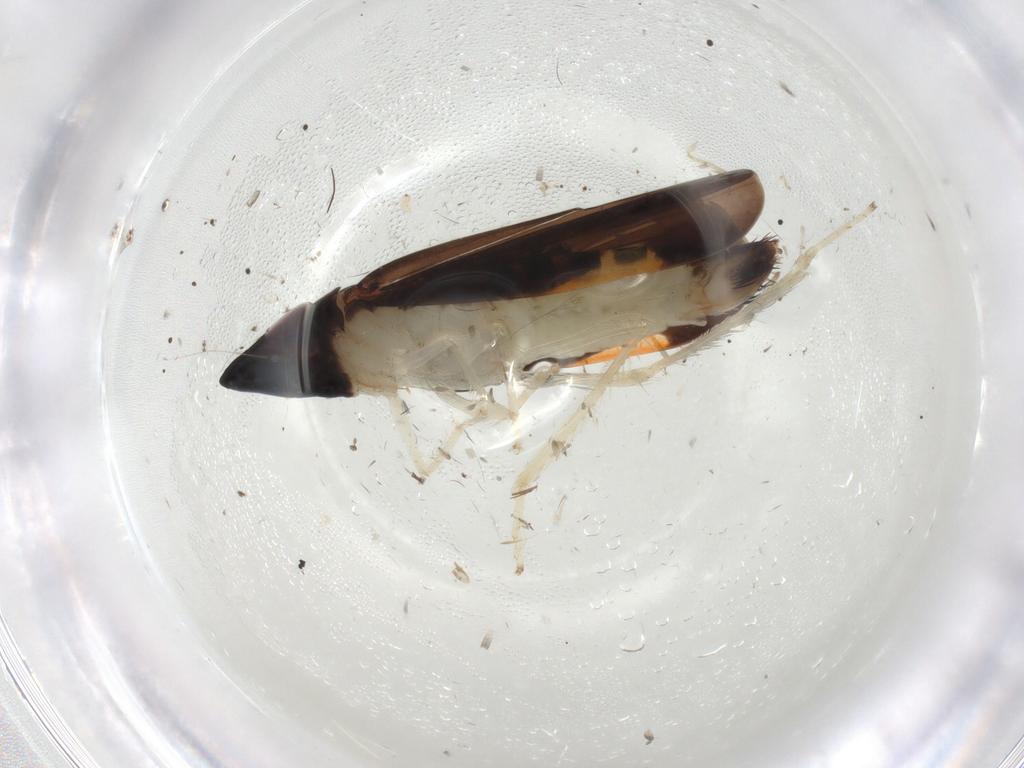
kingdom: Animalia
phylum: Arthropoda
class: Insecta
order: Hemiptera
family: Cicadellidae
